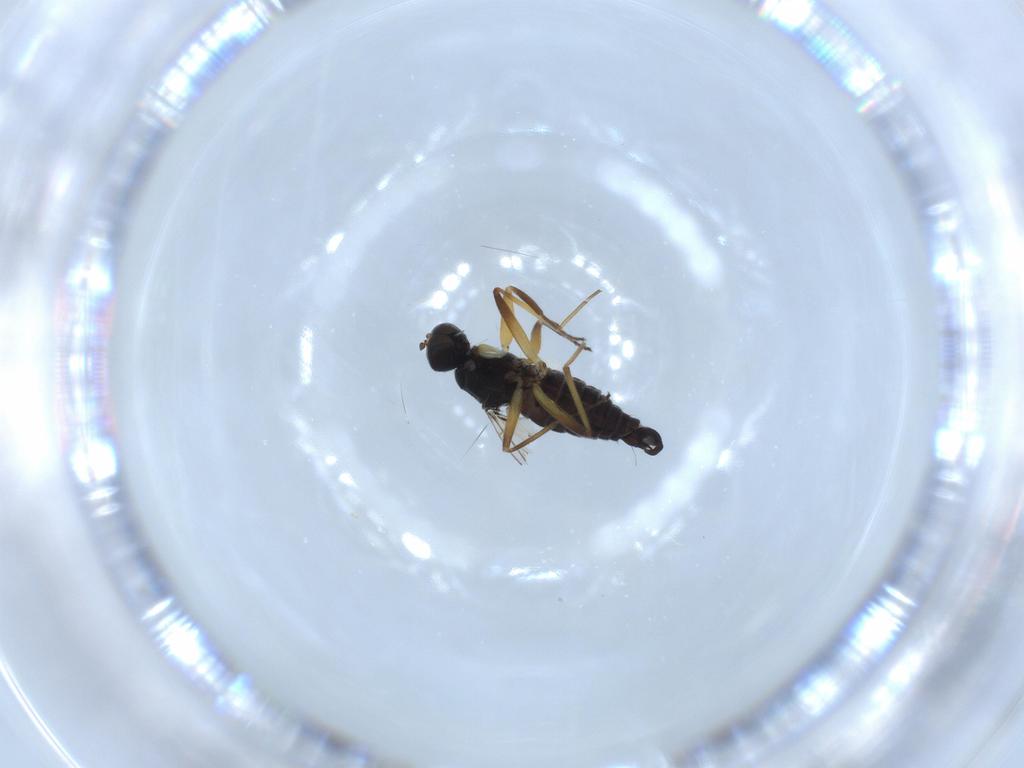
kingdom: Animalia
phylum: Arthropoda
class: Insecta
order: Diptera
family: Hybotidae
